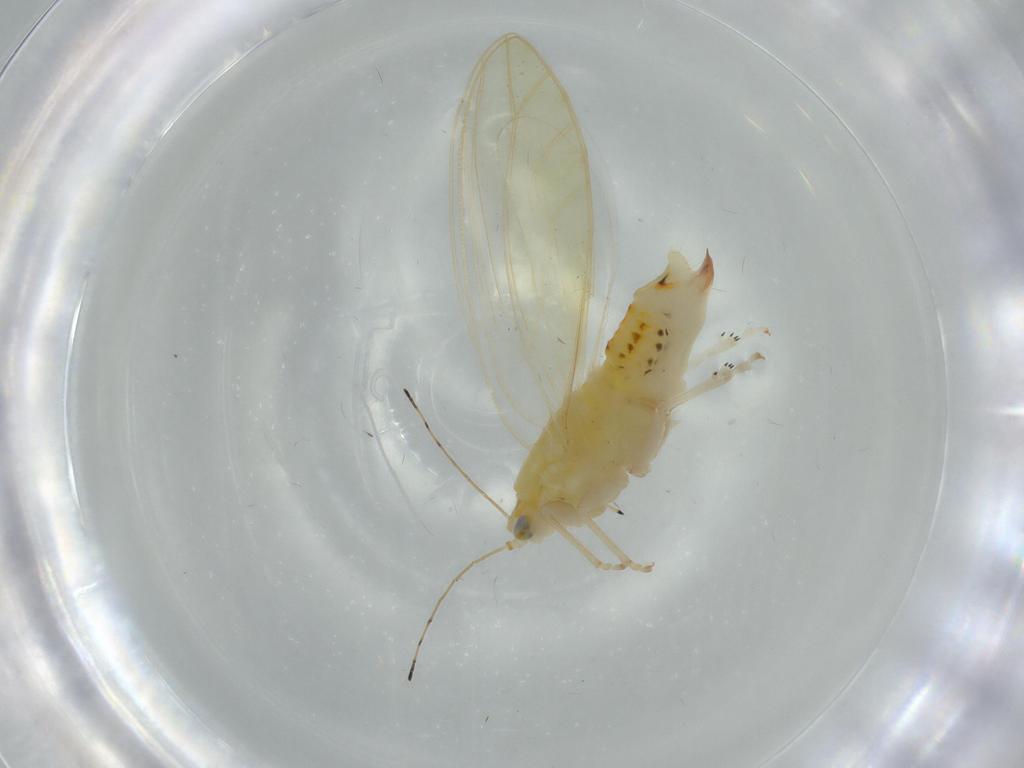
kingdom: Animalia
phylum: Arthropoda
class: Insecta
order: Hemiptera
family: Triozidae
